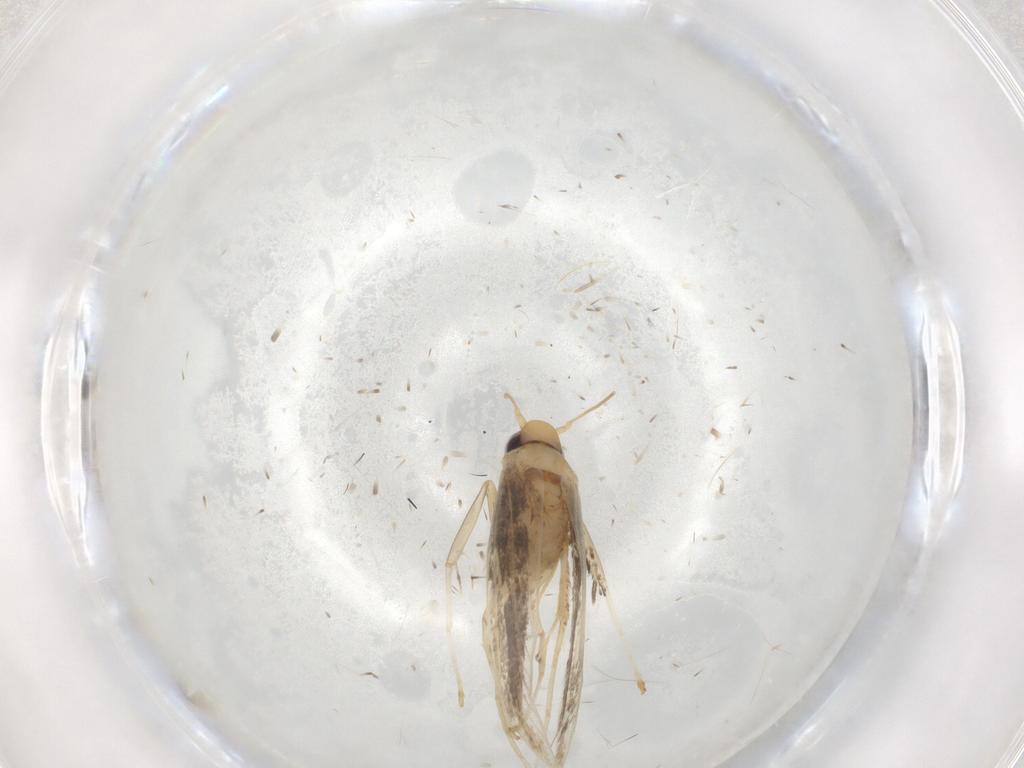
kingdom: Animalia
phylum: Arthropoda
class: Insecta
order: Lepidoptera
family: Gracillariidae
